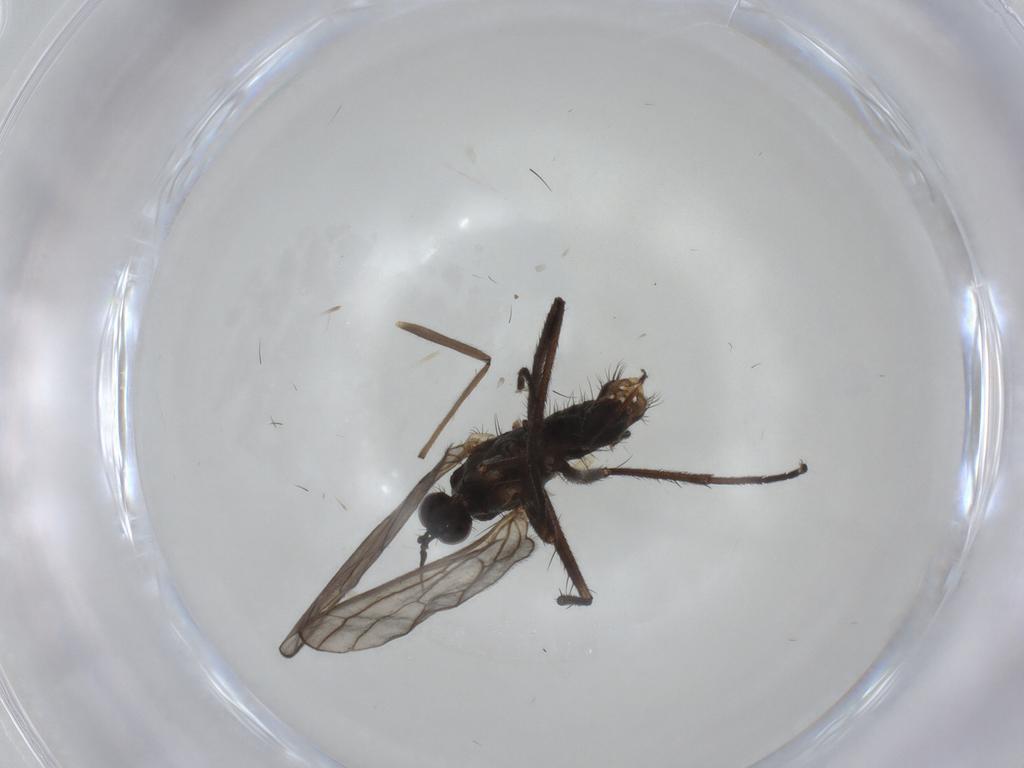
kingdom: Animalia
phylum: Arthropoda
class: Insecta
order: Diptera
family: Empididae
